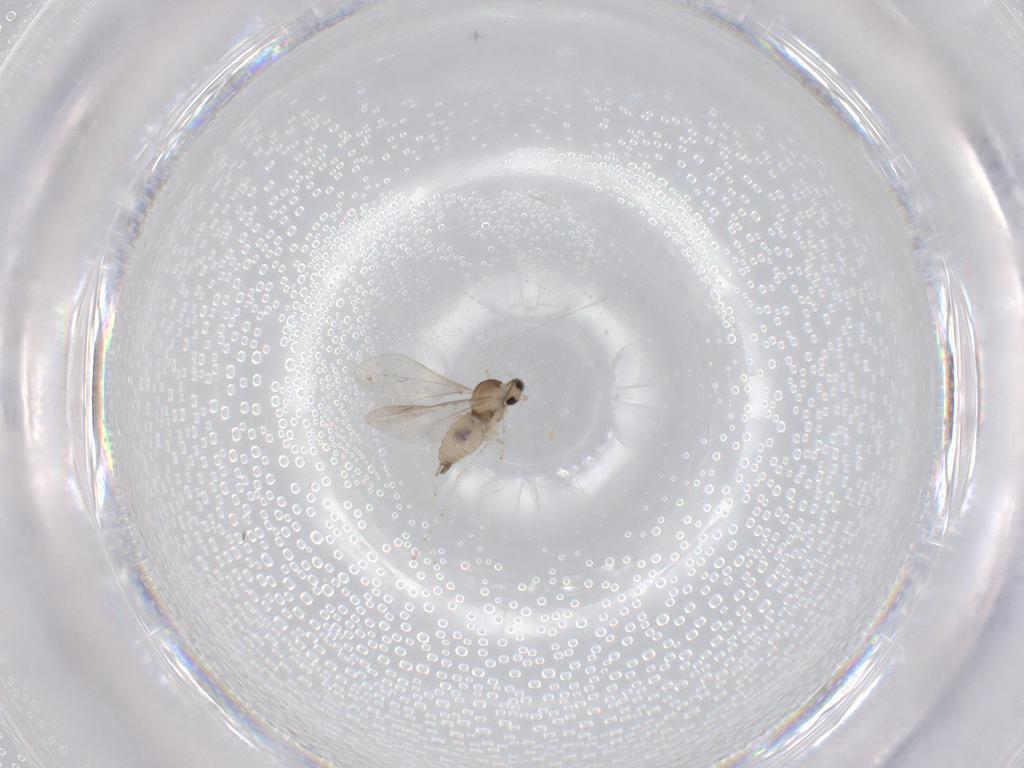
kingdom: Animalia
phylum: Arthropoda
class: Insecta
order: Diptera
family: Cecidomyiidae
